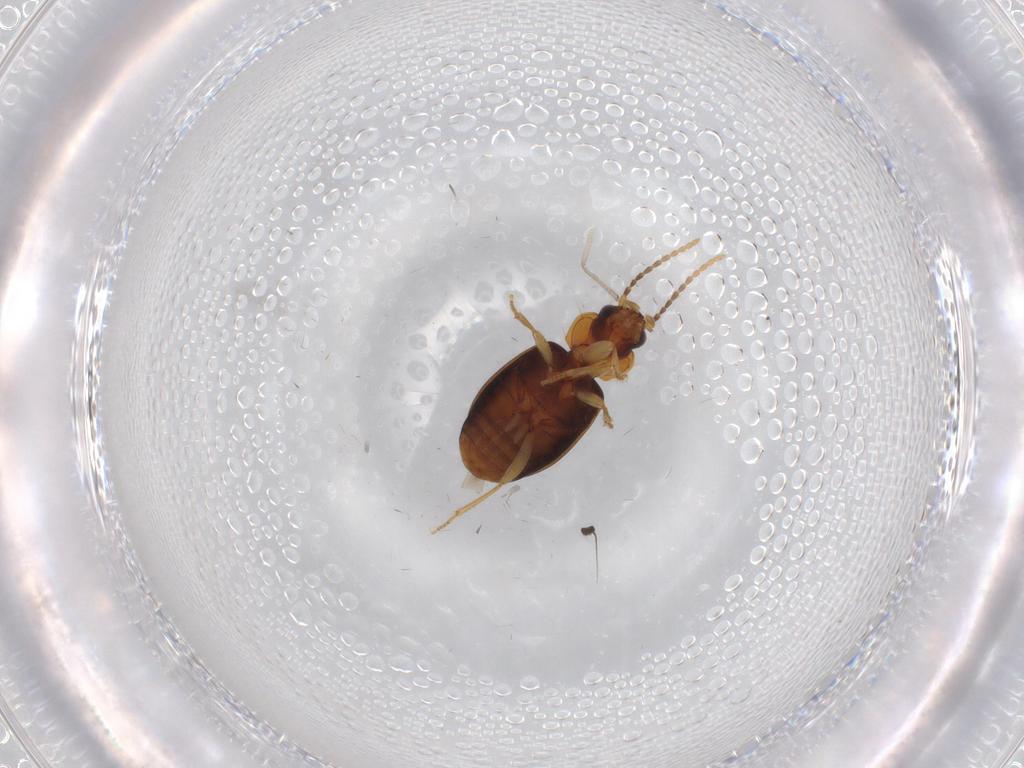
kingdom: Animalia
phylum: Arthropoda
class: Insecta
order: Coleoptera
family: Carabidae
